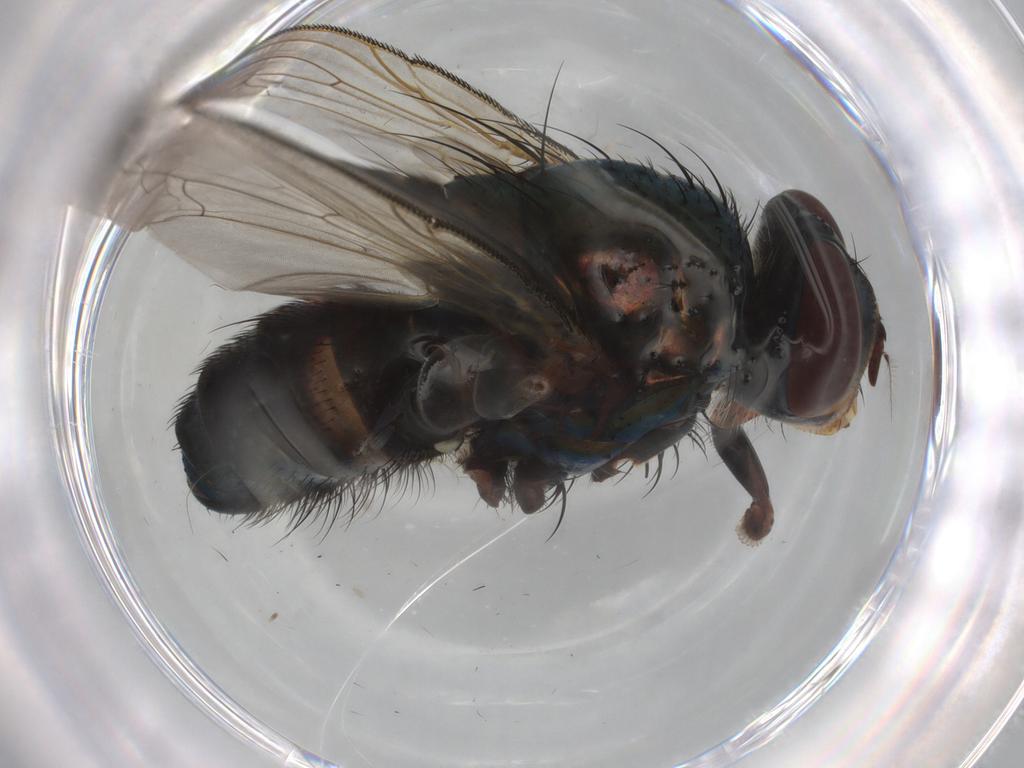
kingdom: Animalia
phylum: Arthropoda
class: Insecta
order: Diptera
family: Calliphoridae
